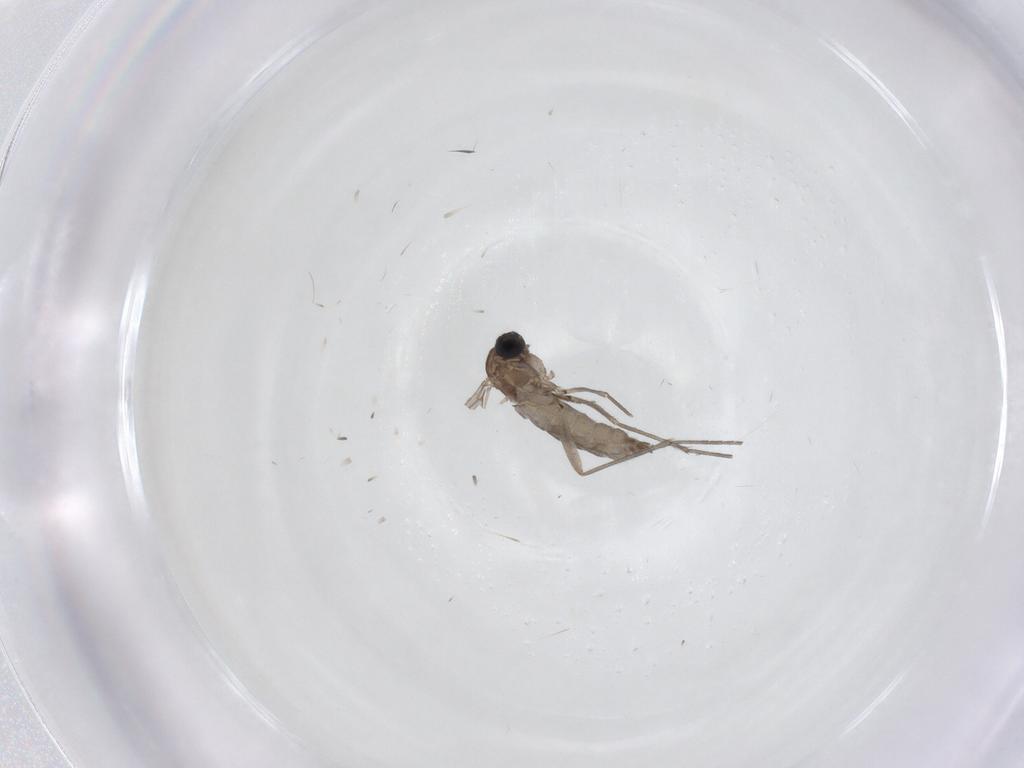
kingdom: Animalia
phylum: Arthropoda
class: Insecta
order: Diptera
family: Sciaridae
